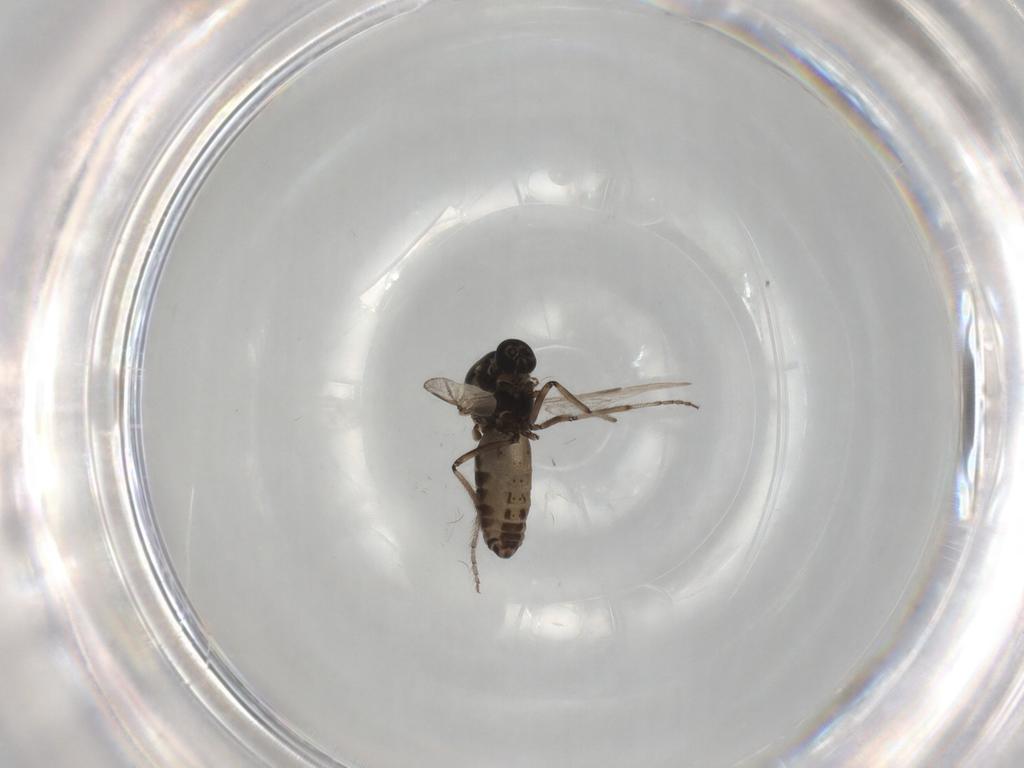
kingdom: Animalia
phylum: Arthropoda
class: Insecta
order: Diptera
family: Ceratopogonidae
